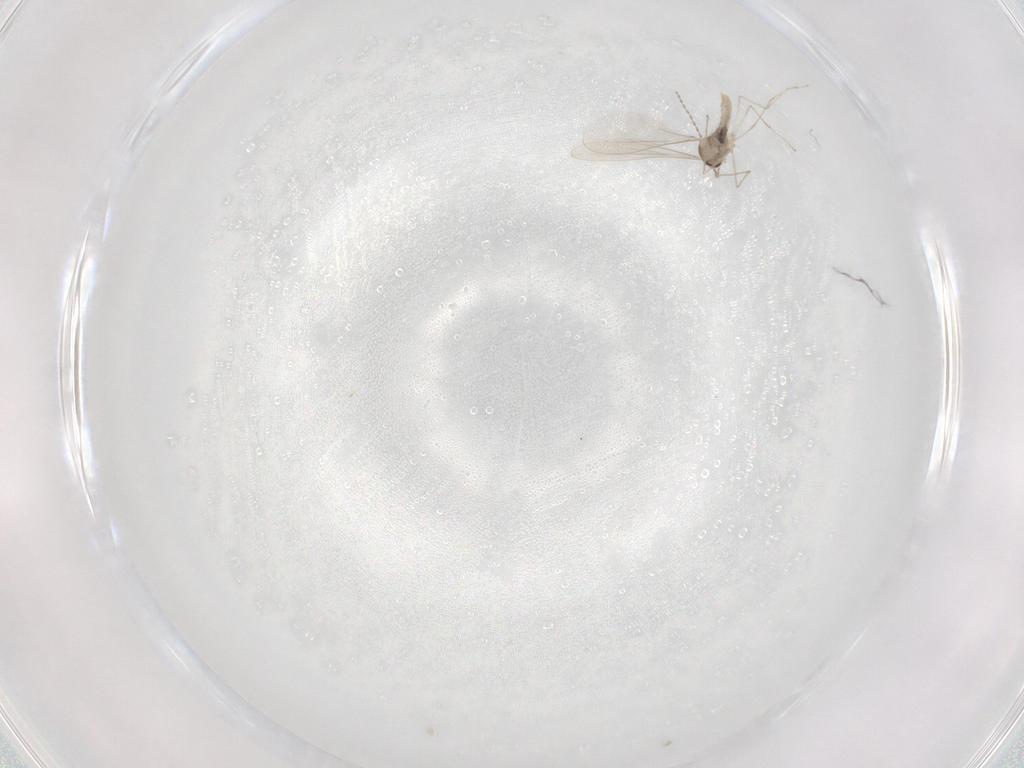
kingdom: Animalia
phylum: Arthropoda
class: Insecta
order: Diptera
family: Cecidomyiidae
